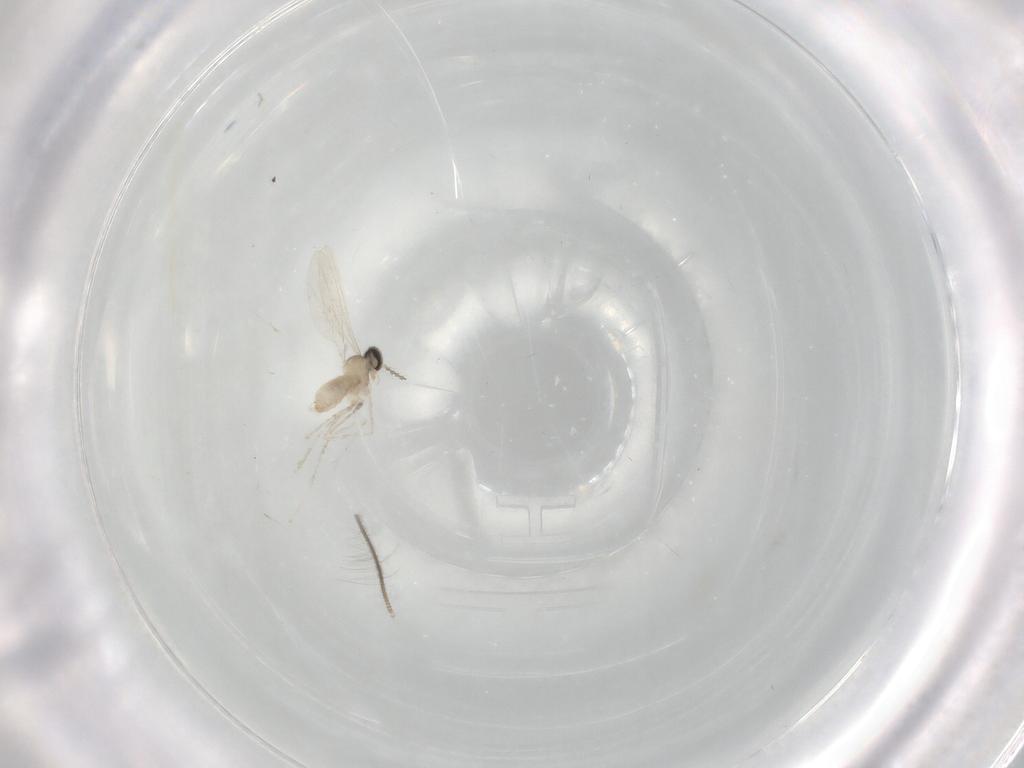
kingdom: Animalia
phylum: Arthropoda
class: Insecta
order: Diptera
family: Chironomidae
